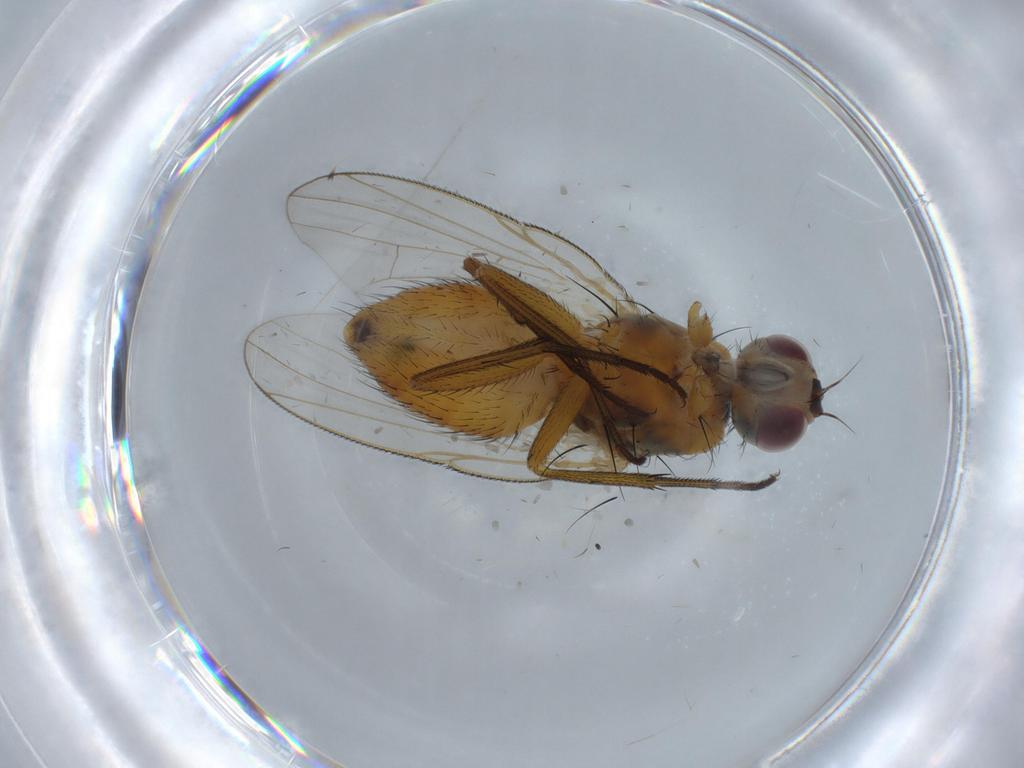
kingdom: Animalia
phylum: Arthropoda
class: Insecta
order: Diptera
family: Muscidae
